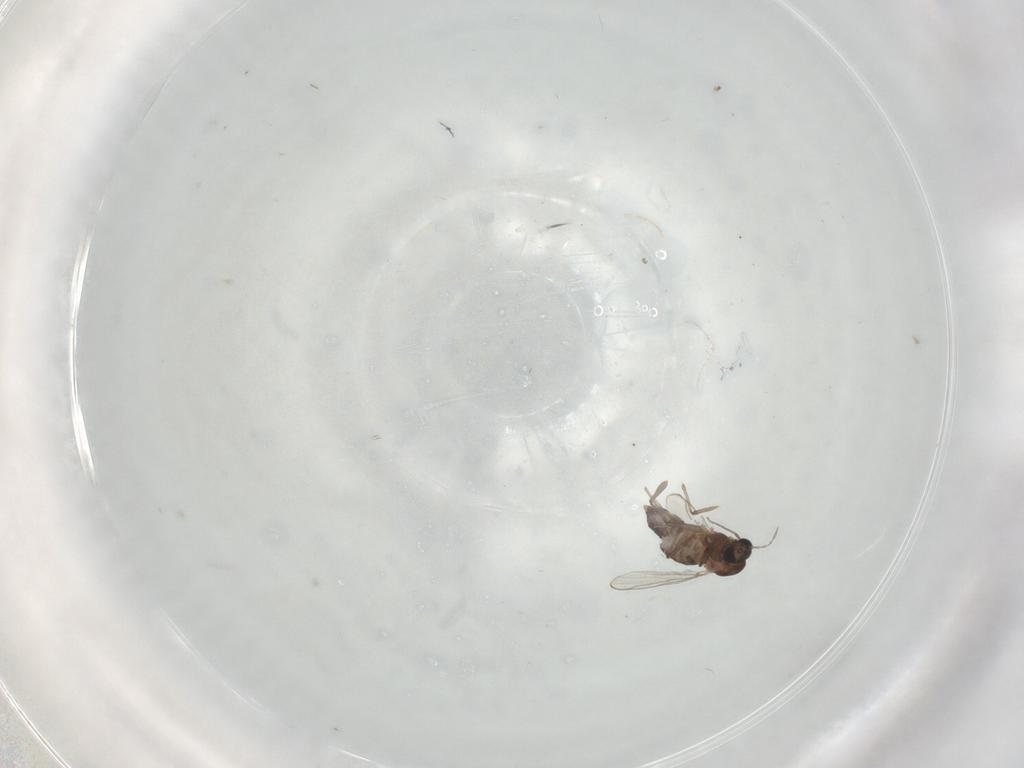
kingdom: Animalia
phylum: Arthropoda
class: Insecta
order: Diptera
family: Chironomidae
